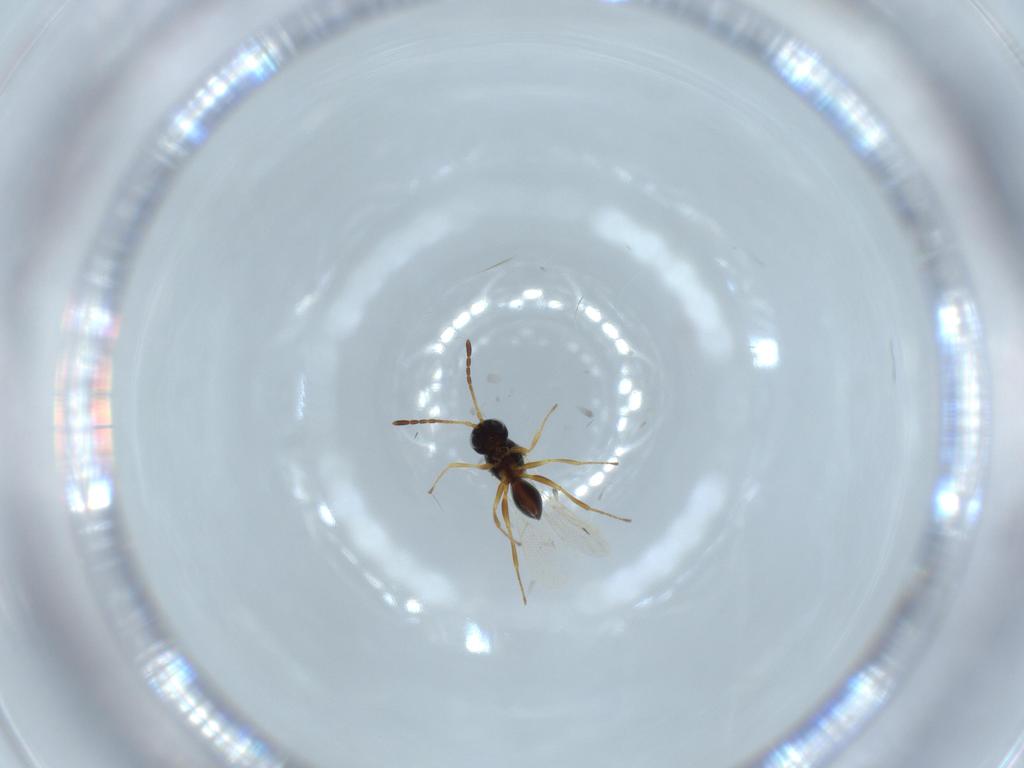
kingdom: Animalia
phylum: Arthropoda
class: Insecta
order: Hymenoptera
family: Figitidae
